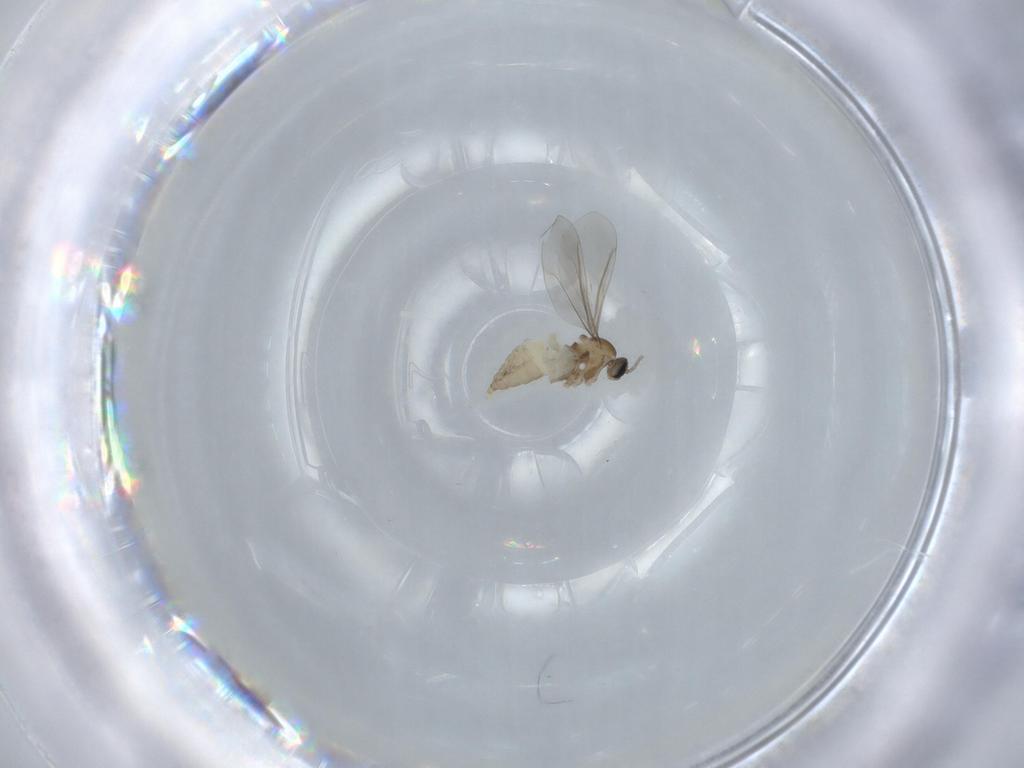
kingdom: Animalia
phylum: Arthropoda
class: Insecta
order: Diptera
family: Cecidomyiidae
